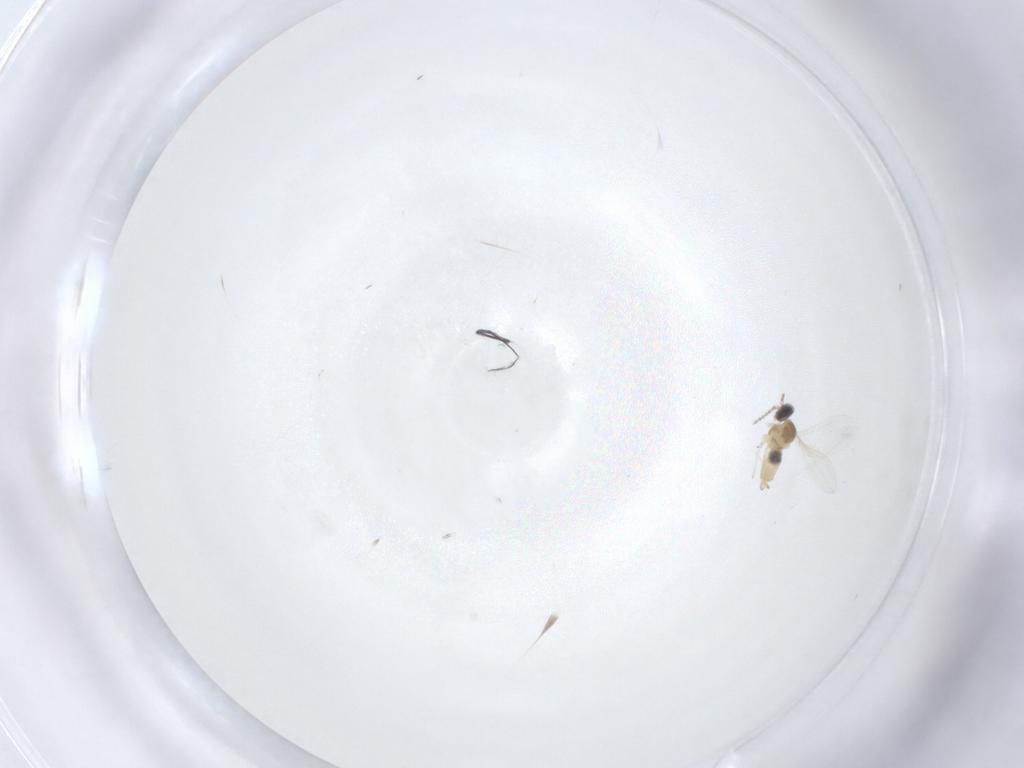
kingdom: Animalia
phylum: Arthropoda
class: Insecta
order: Diptera
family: Cecidomyiidae
